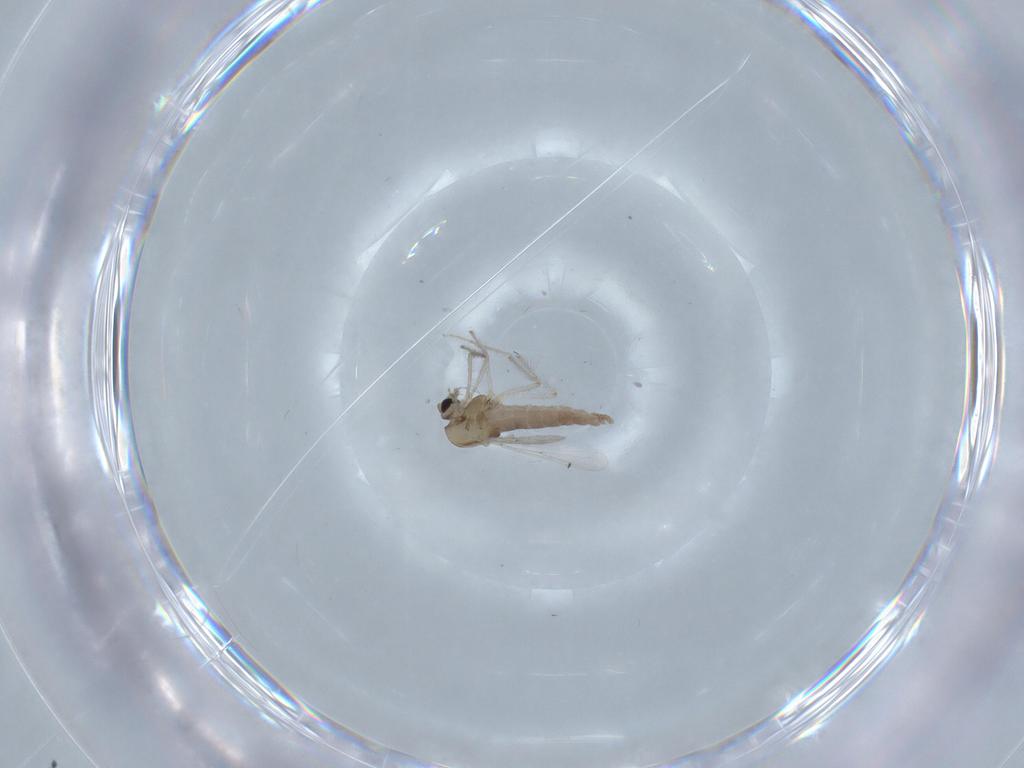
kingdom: Animalia
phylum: Arthropoda
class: Insecta
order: Diptera
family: Chironomidae
